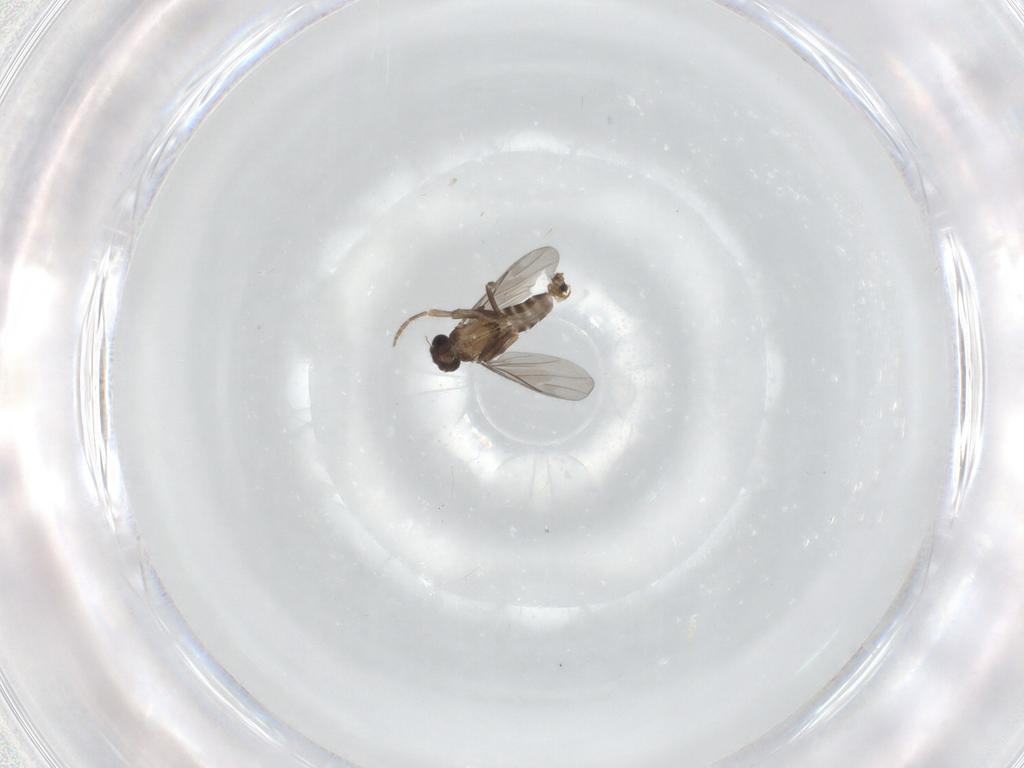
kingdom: Animalia
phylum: Arthropoda
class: Insecta
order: Diptera
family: Sciaridae
